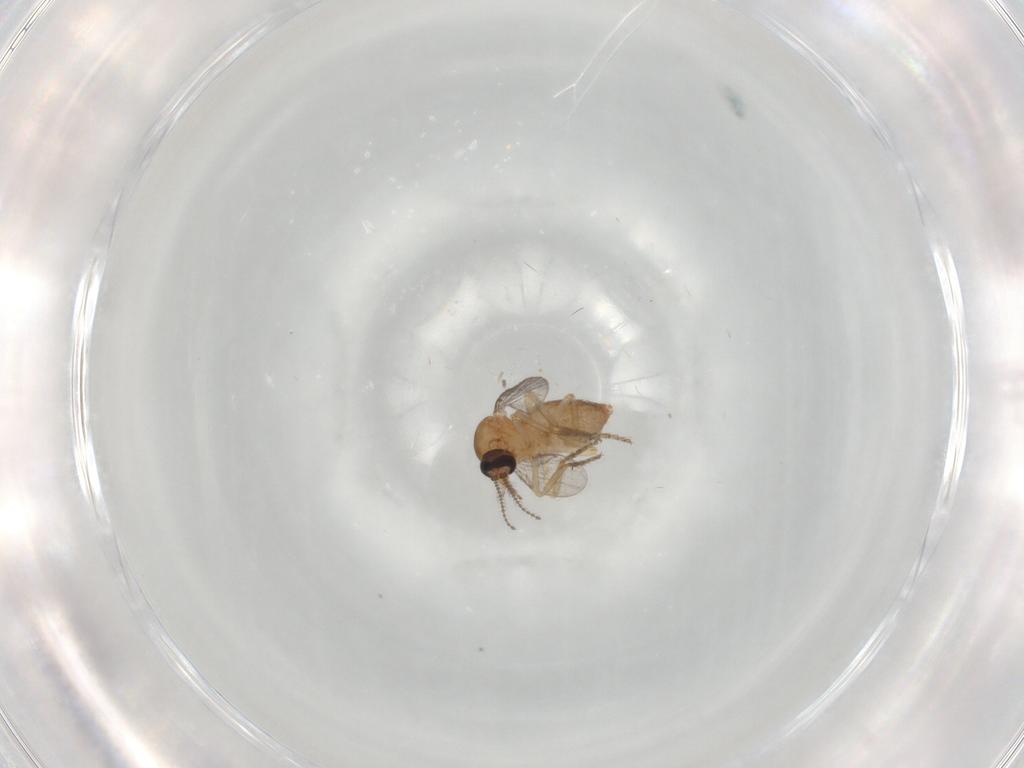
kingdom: Animalia
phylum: Arthropoda
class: Insecta
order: Diptera
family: Ceratopogonidae
